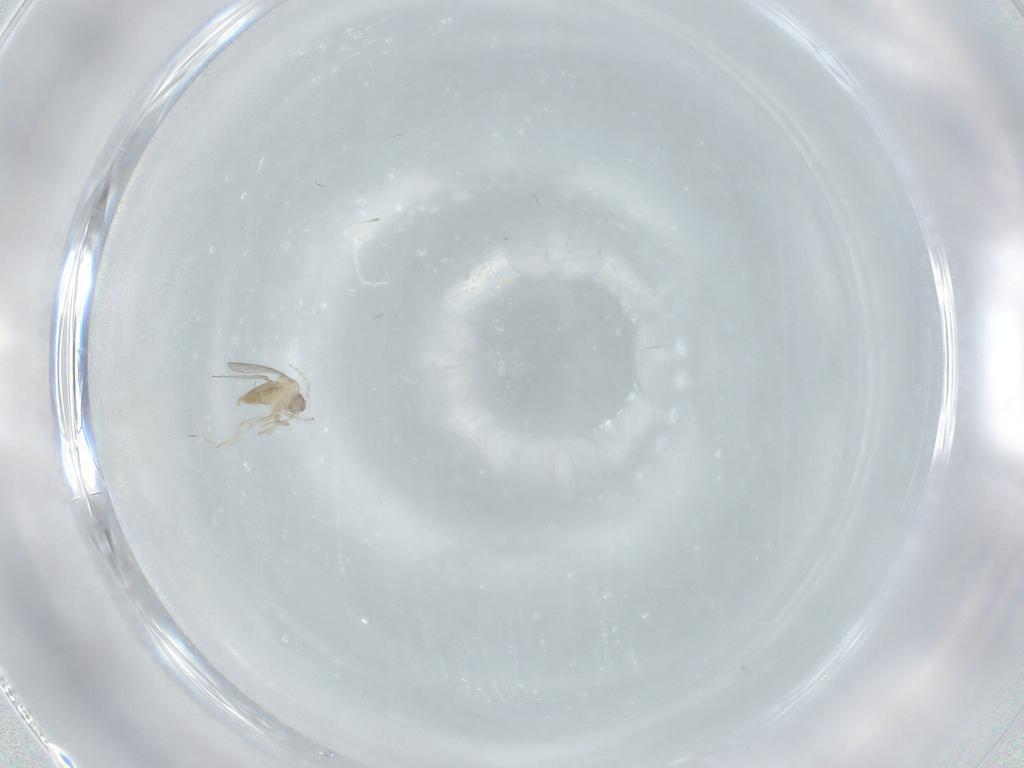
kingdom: Animalia
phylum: Arthropoda
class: Insecta
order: Diptera
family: Cecidomyiidae
